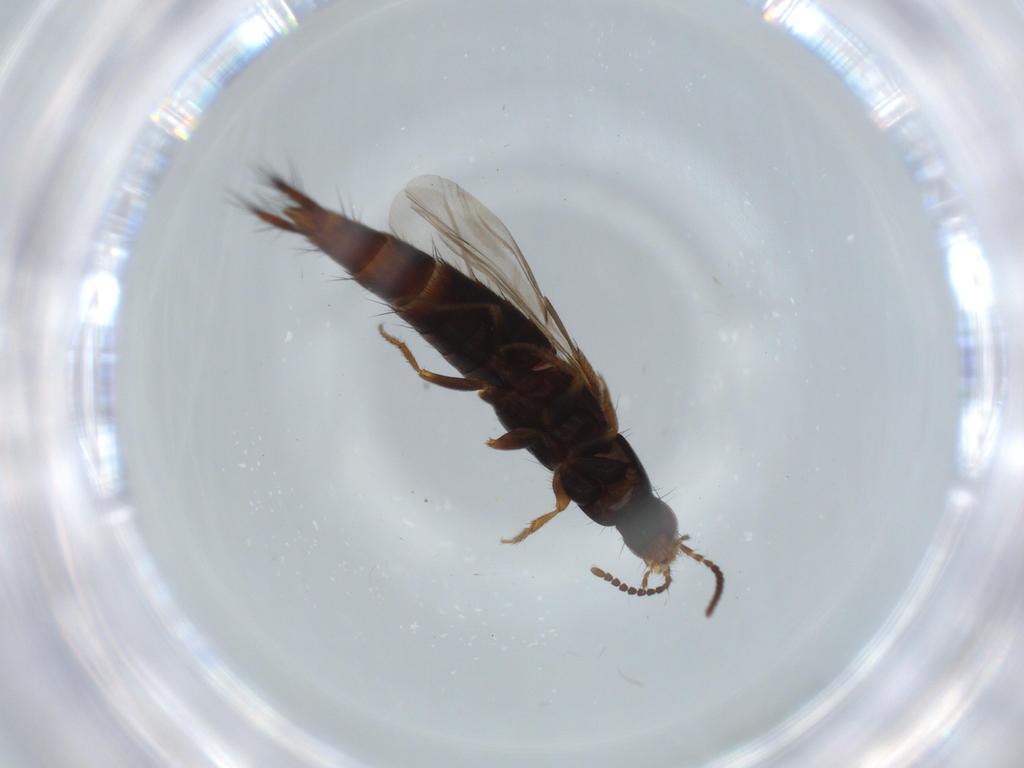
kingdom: Animalia
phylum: Arthropoda
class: Insecta
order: Coleoptera
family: Staphylinidae
